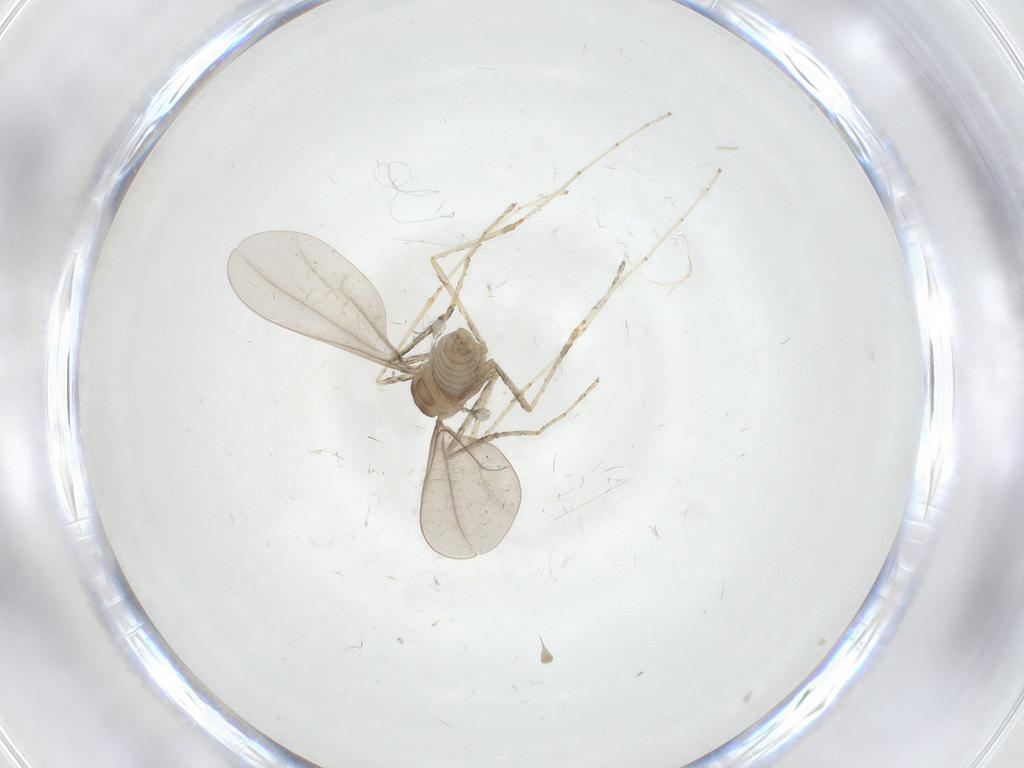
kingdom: Animalia
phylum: Arthropoda
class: Insecta
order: Diptera
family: Cecidomyiidae
